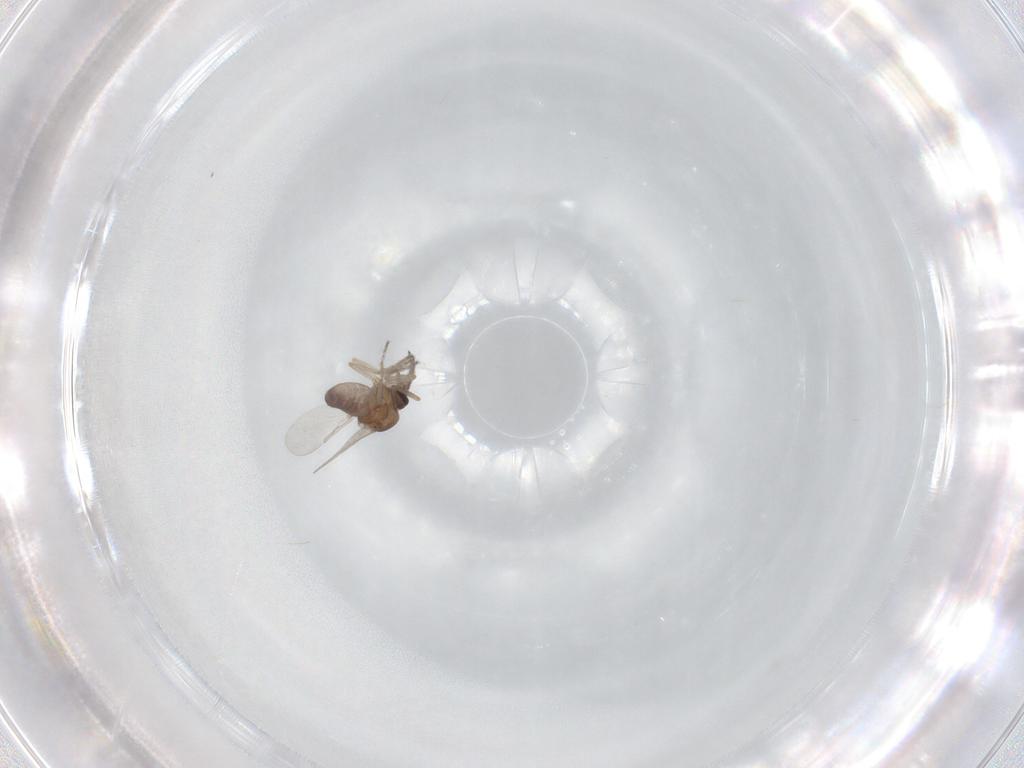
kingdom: Animalia
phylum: Arthropoda
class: Insecta
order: Diptera
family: Ceratopogonidae
